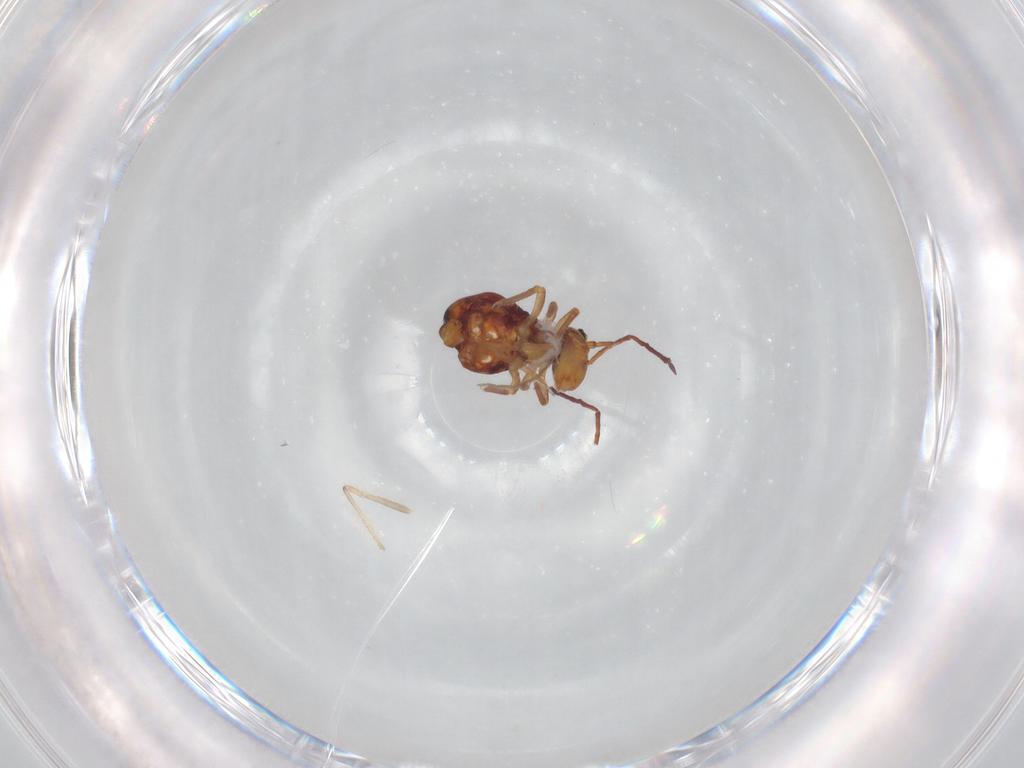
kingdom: Animalia
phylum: Arthropoda
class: Collembola
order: Symphypleona
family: Dicyrtomidae
